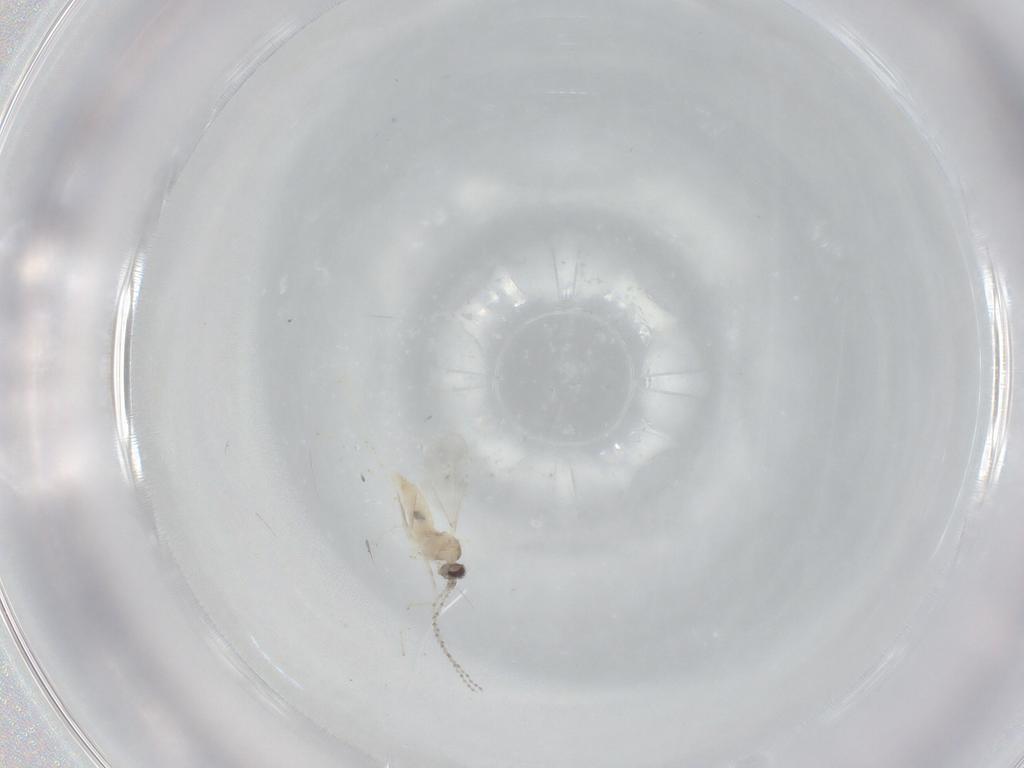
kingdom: Animalia
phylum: Arthropoda
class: Insecta
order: Diptera
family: Cecidomyiidae
